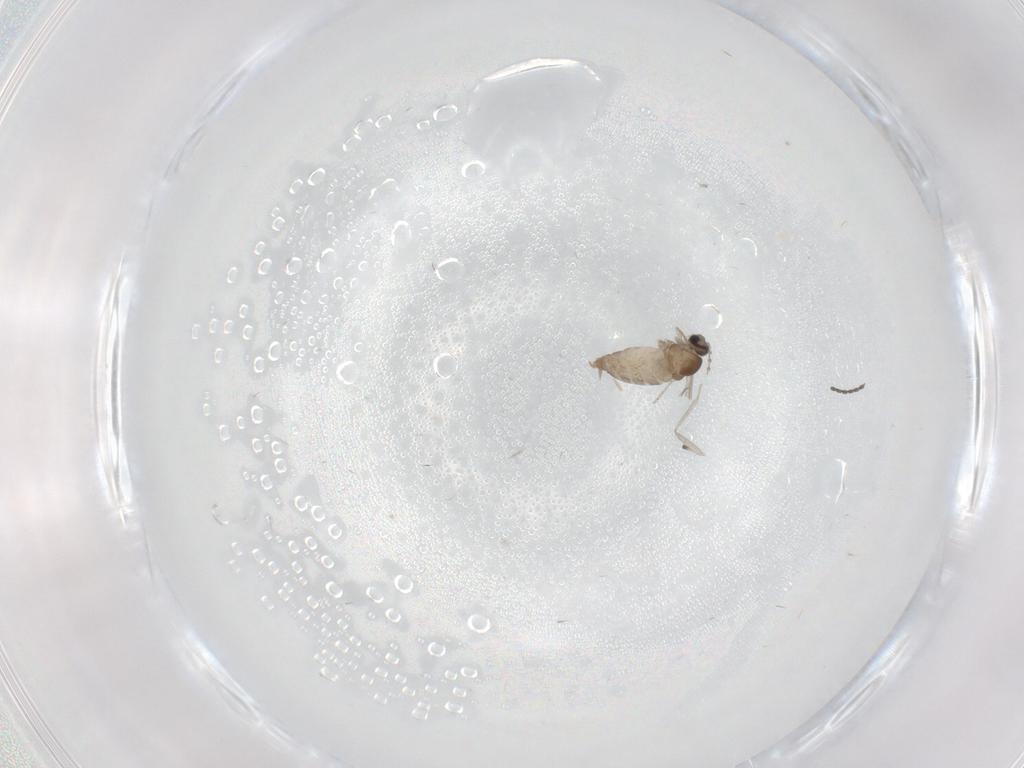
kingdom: Animalia
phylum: Arthropoda
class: Insecta
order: Diptera
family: Cecidomyiidae
